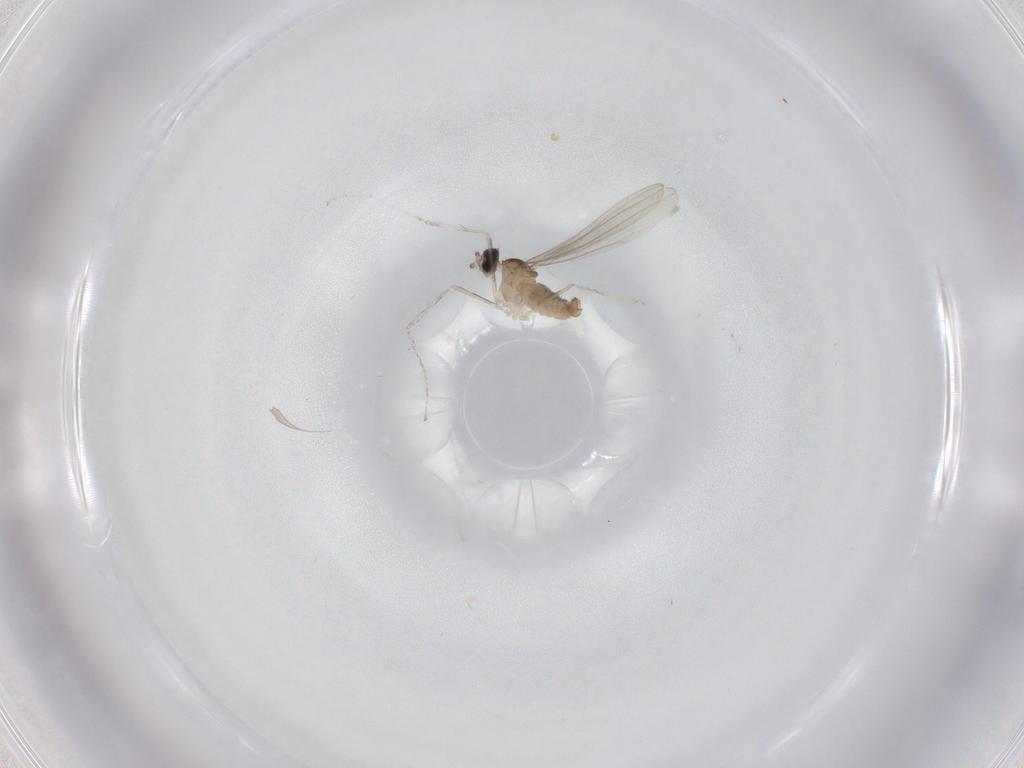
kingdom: Animalia
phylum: Arthropoda
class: Insecta
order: Diptera
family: Cecidomyiidae
